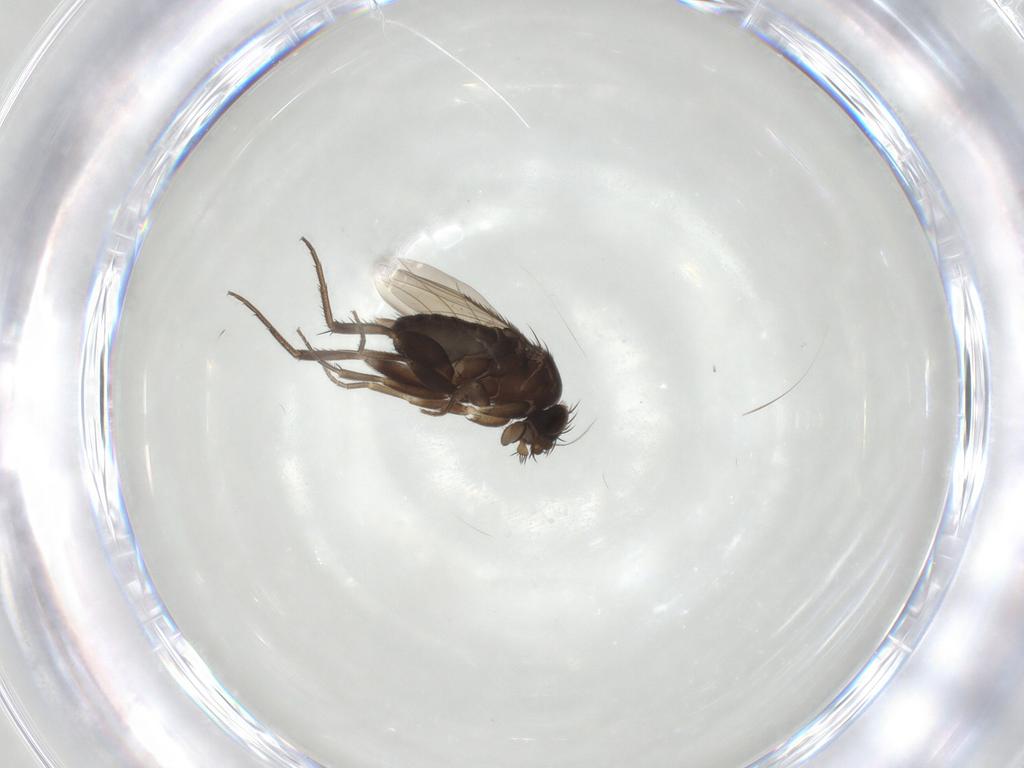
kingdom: Animalia
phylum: Arthropoda
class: Insecta
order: Diptera
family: Phoridae
